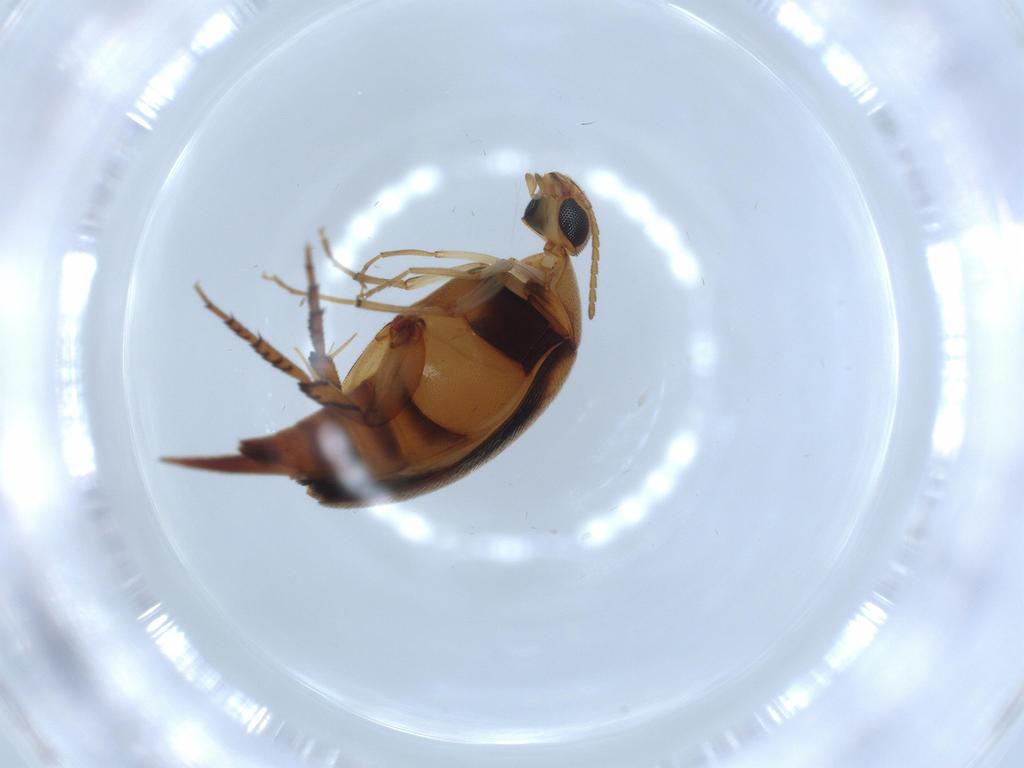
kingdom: Animalia
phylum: Arthropoda
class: Insecta
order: Coleoptera
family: Mordellidae
